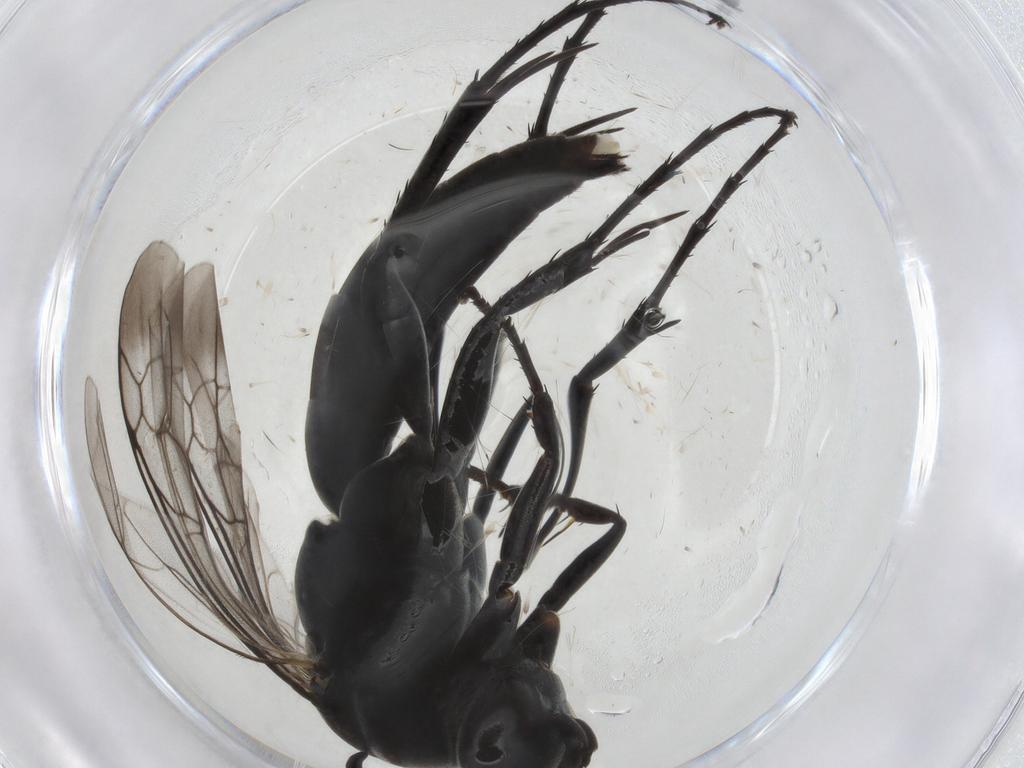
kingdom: Animalia
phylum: Arthropoda
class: Insecta
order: Hymenoptera
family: Pompilidae
